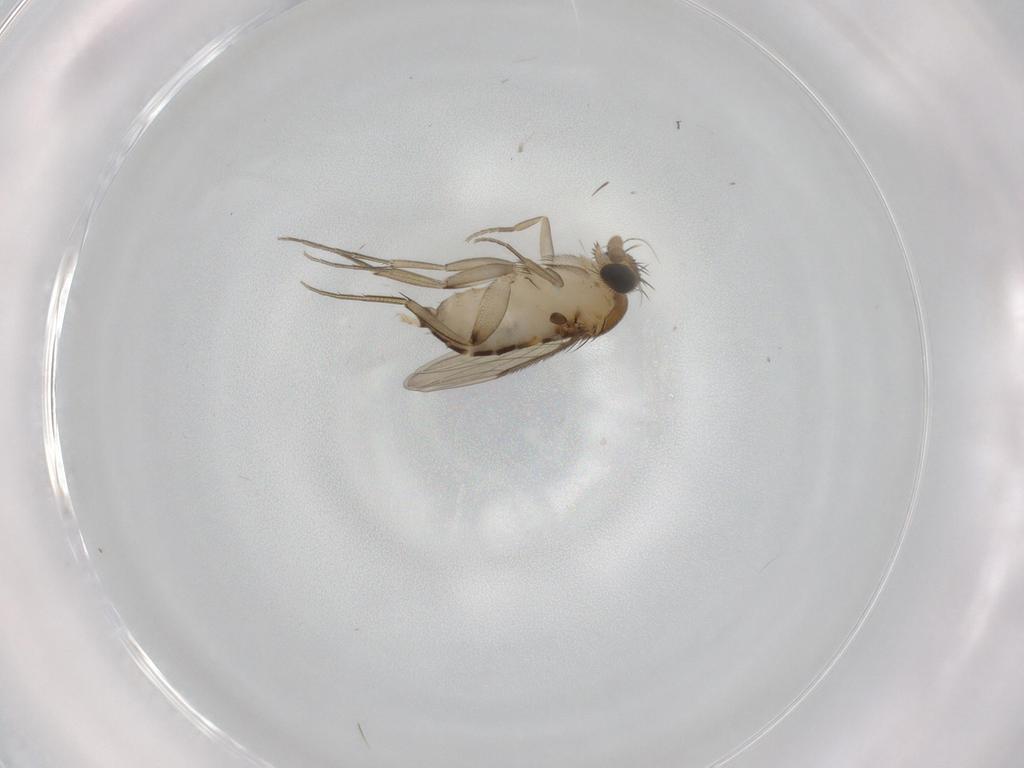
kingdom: Animalia
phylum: Arthropoda
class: Insecta
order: Diptera
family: Phoridae
